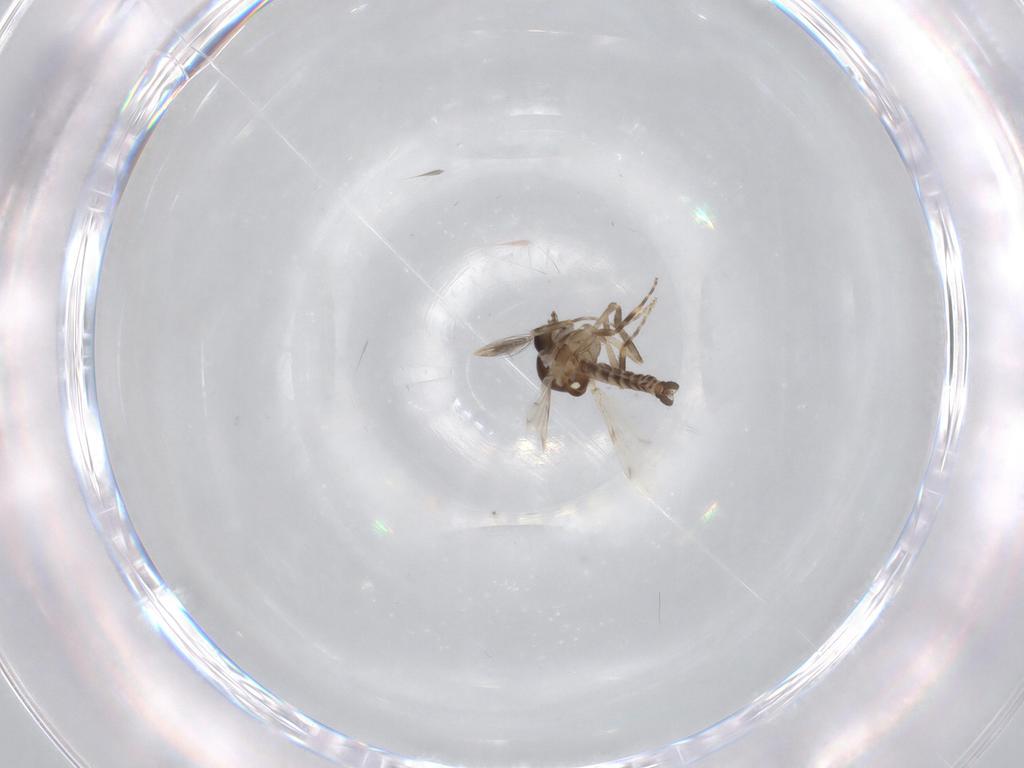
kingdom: Animalia
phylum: Arthropoda
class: Insecta
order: Diptera
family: Ceratopogonidae
